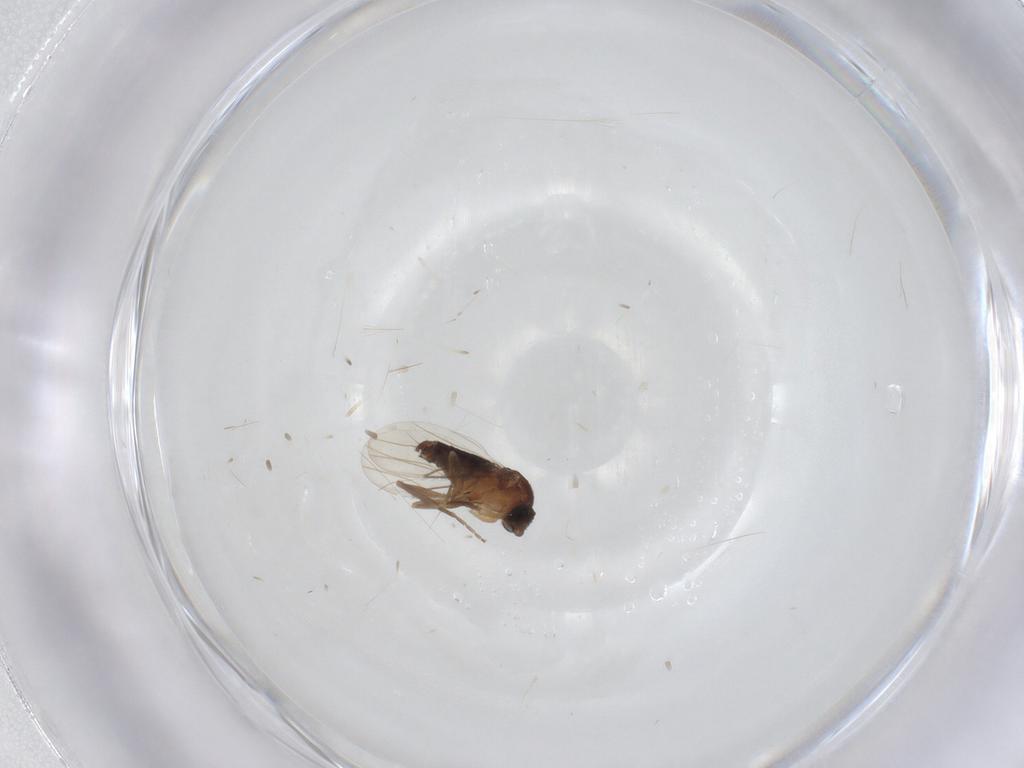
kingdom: Animalia
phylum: Arthropoda
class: Insecta
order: Diptera
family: Phoridae
